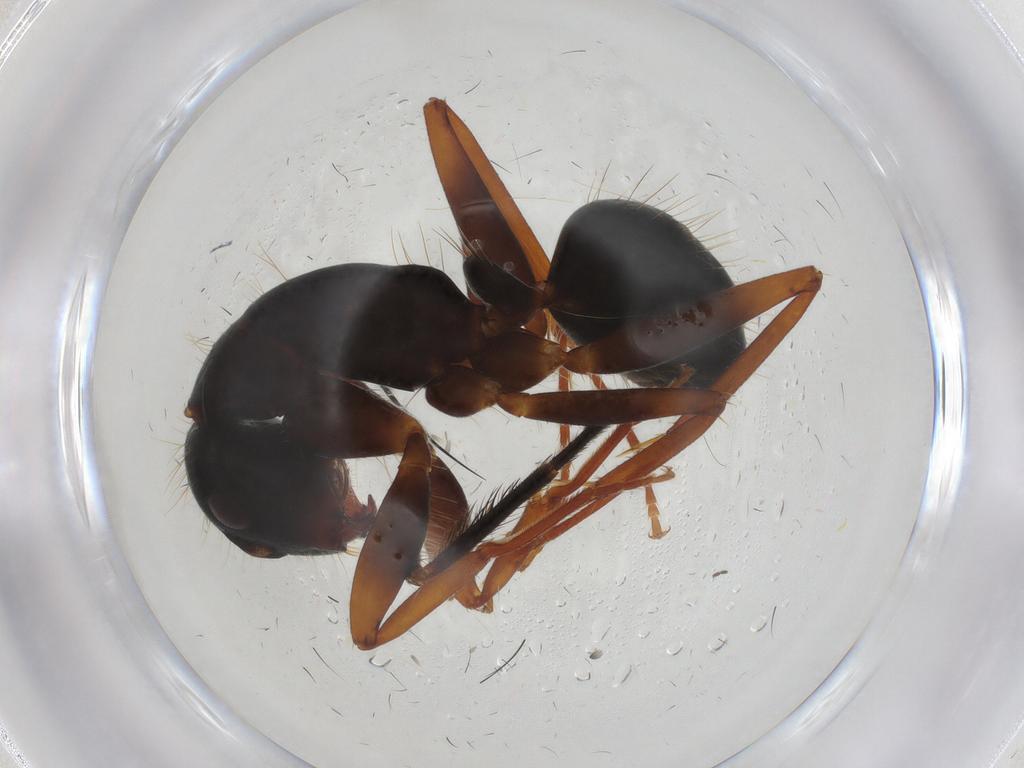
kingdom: Animalia
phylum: Arthropoda
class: Insecta
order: Hymenoptera
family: Formicidae
